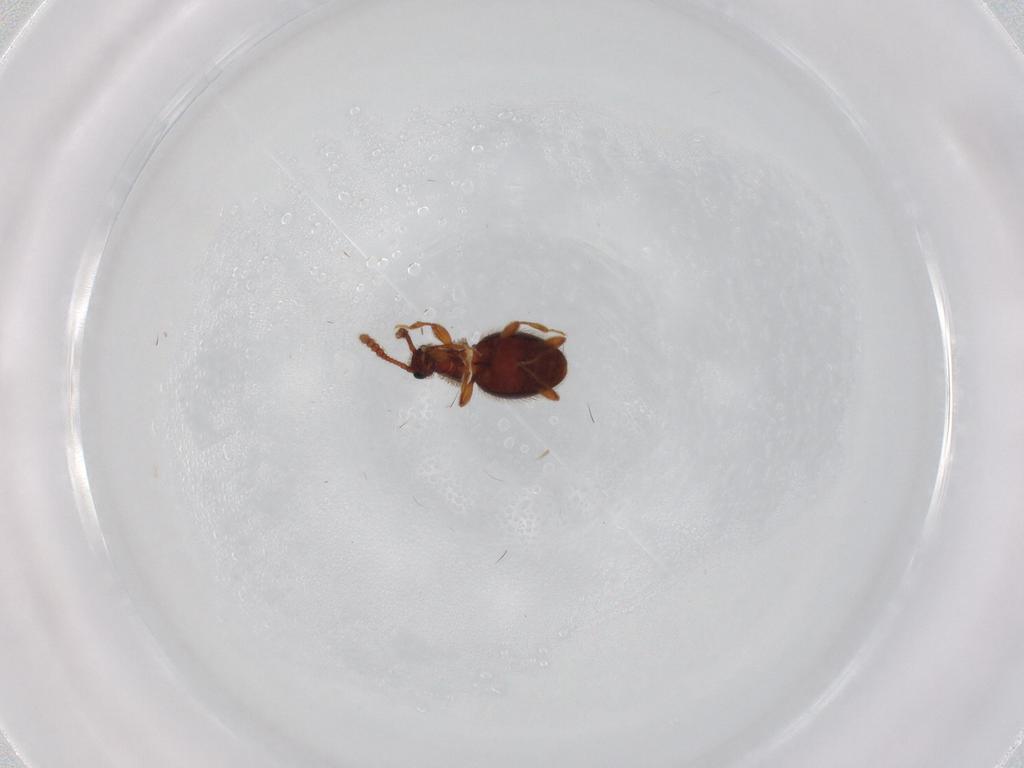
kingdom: Animalia
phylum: Arthropoda
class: Insecta
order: Coleoptera
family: Staphylinidae
